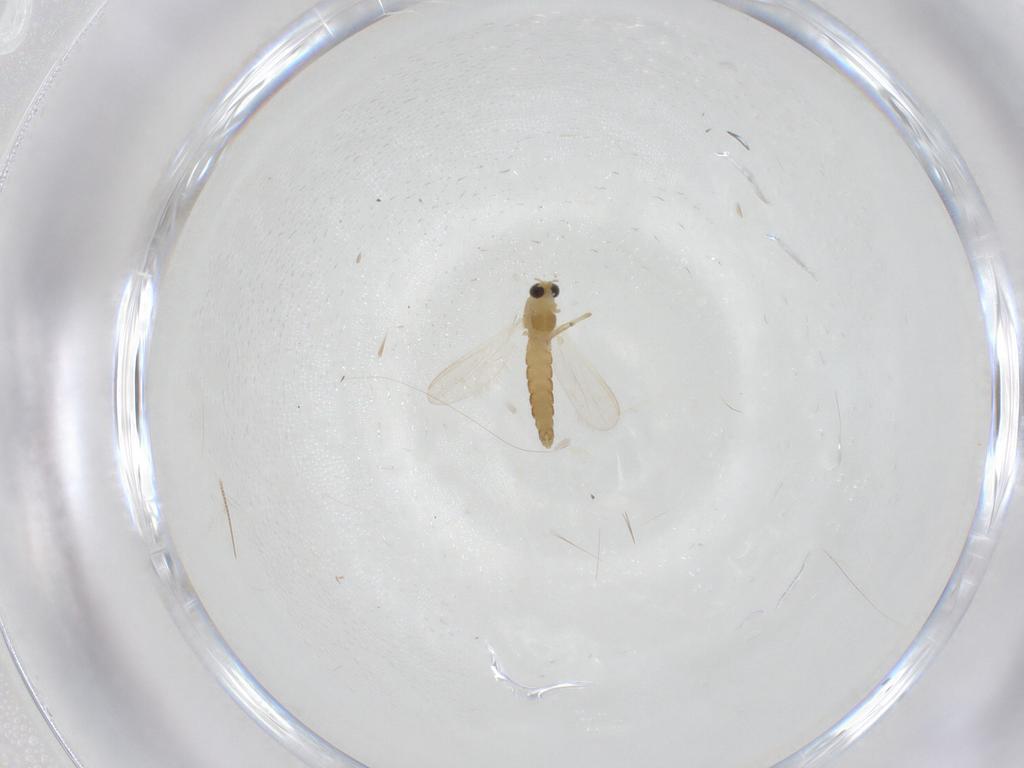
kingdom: Animalia
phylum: Arthropoda
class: Insecta
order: Diptera
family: Chironomidae
